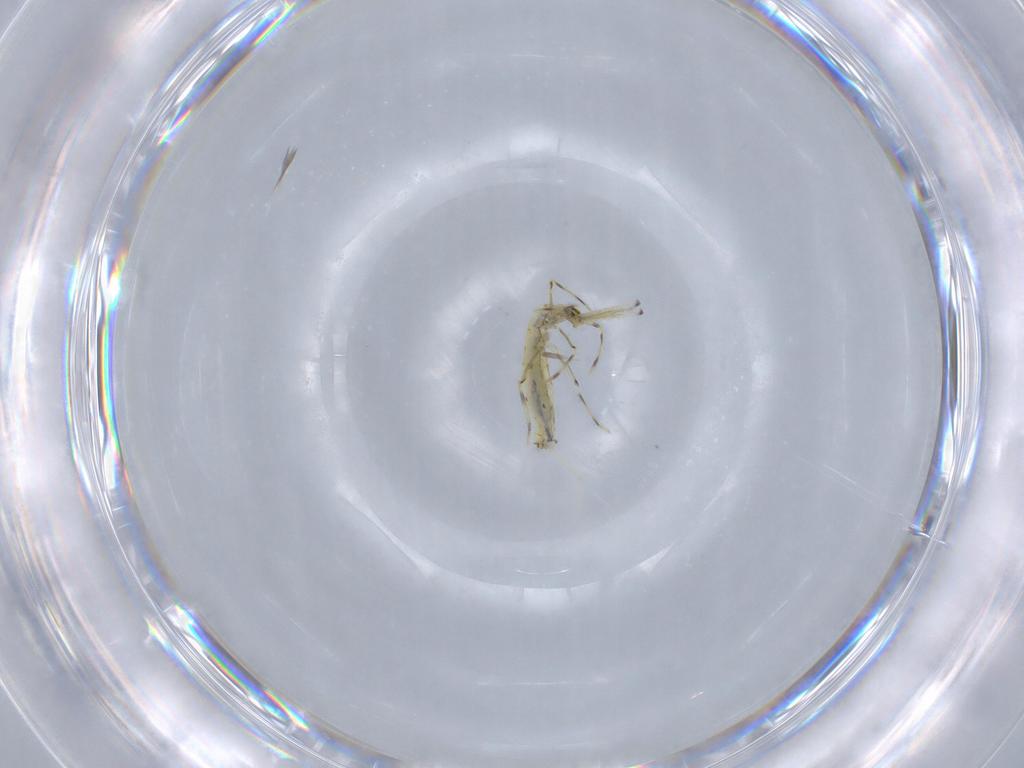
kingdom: Animalia
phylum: Arthropoda
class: Collembola
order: Entomobryomorpha
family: Paronellidae
